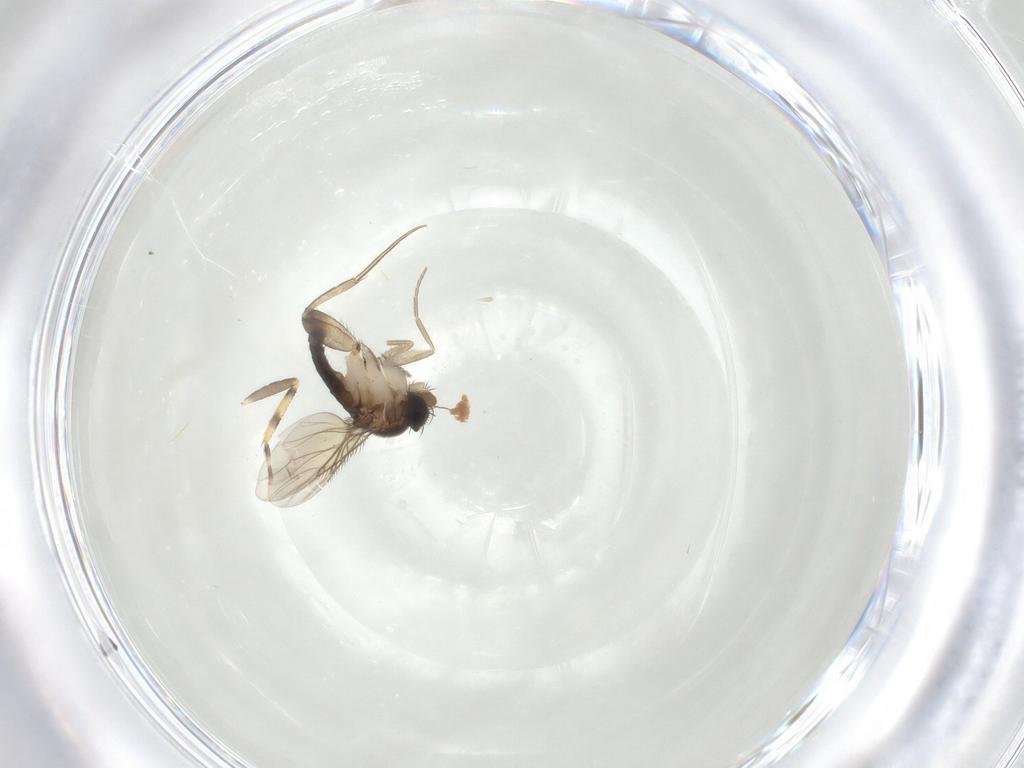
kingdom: Animalia
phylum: Arthropoda
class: Insecta
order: Diptera
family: Phoridae
